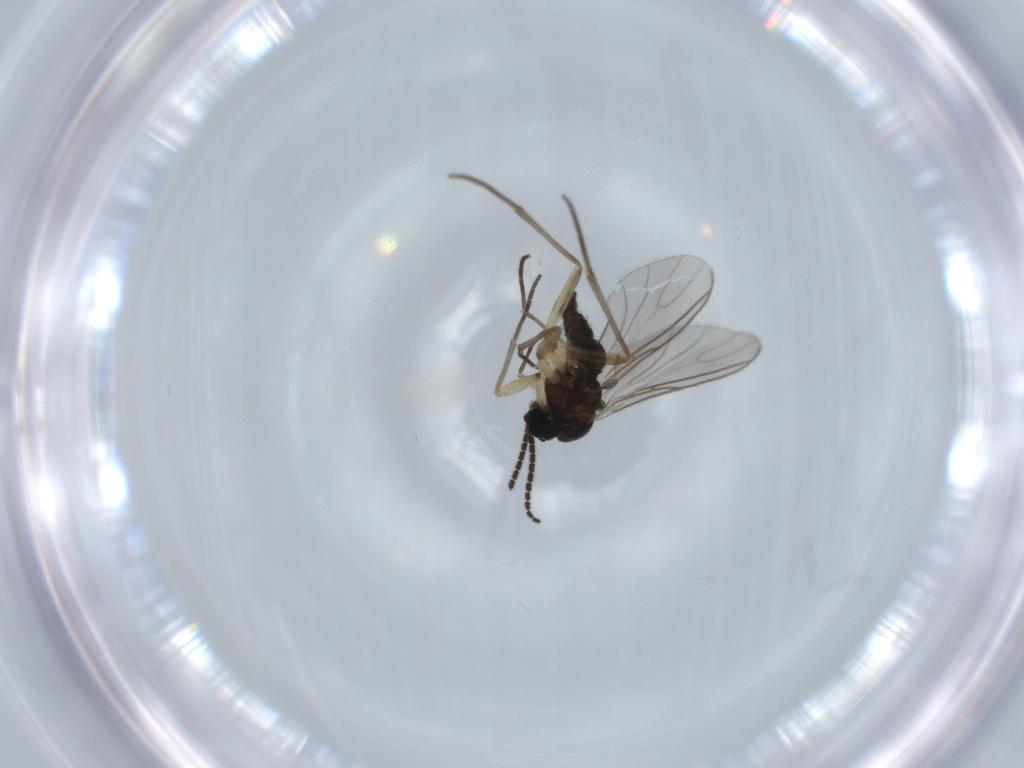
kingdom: Animalia
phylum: Arthropoda
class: Insecta
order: Diptera
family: Sciaridae
